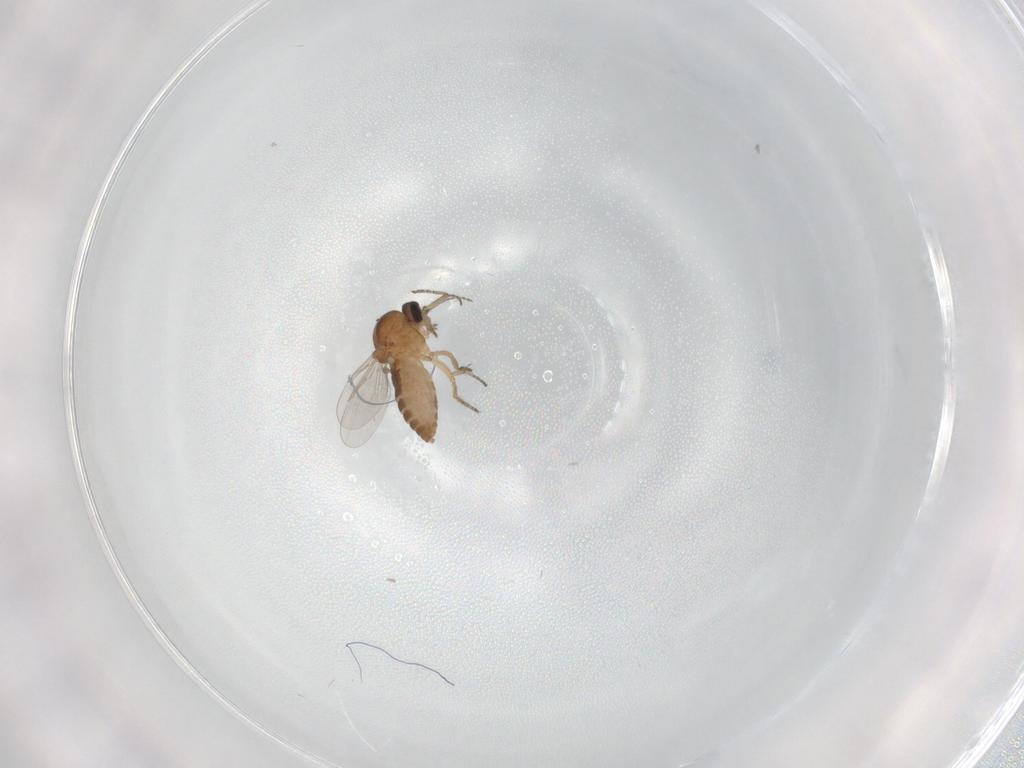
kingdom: Animalia
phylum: Arthropoda
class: Insecta
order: Diptera
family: Ceratopogonidae
